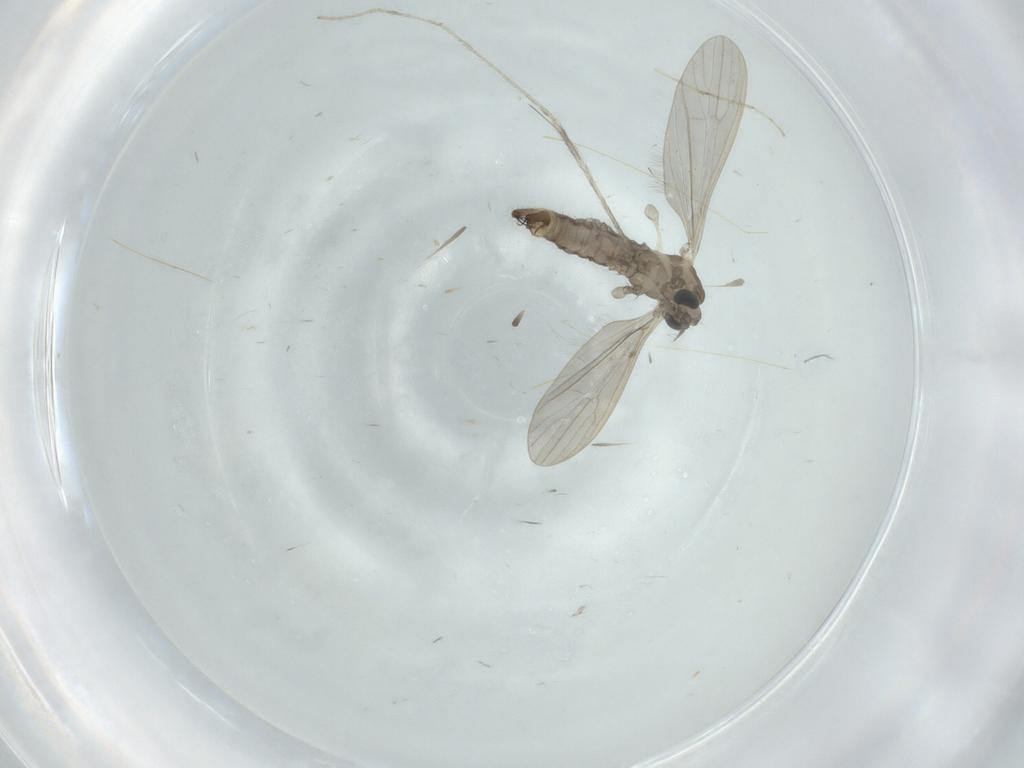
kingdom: Animalia
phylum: Arthropoda
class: Insecta
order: Diptera
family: Limoniidae
